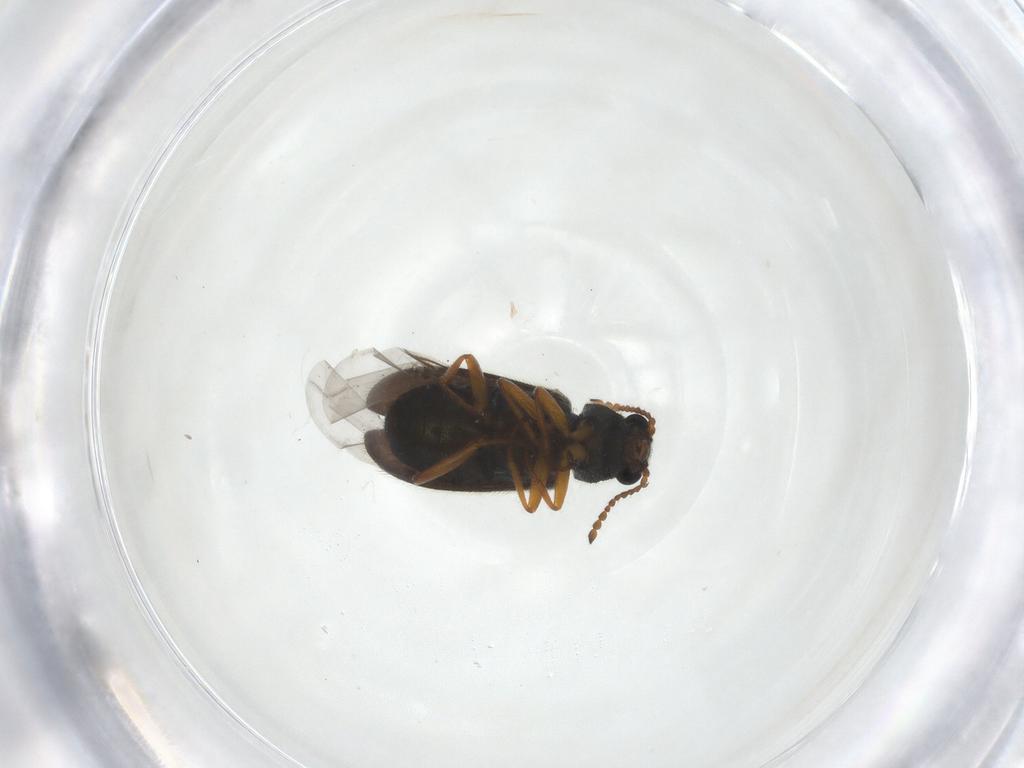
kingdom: Animalia
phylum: Arthropoda
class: Insecta
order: Coleoptera
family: Melyridae
